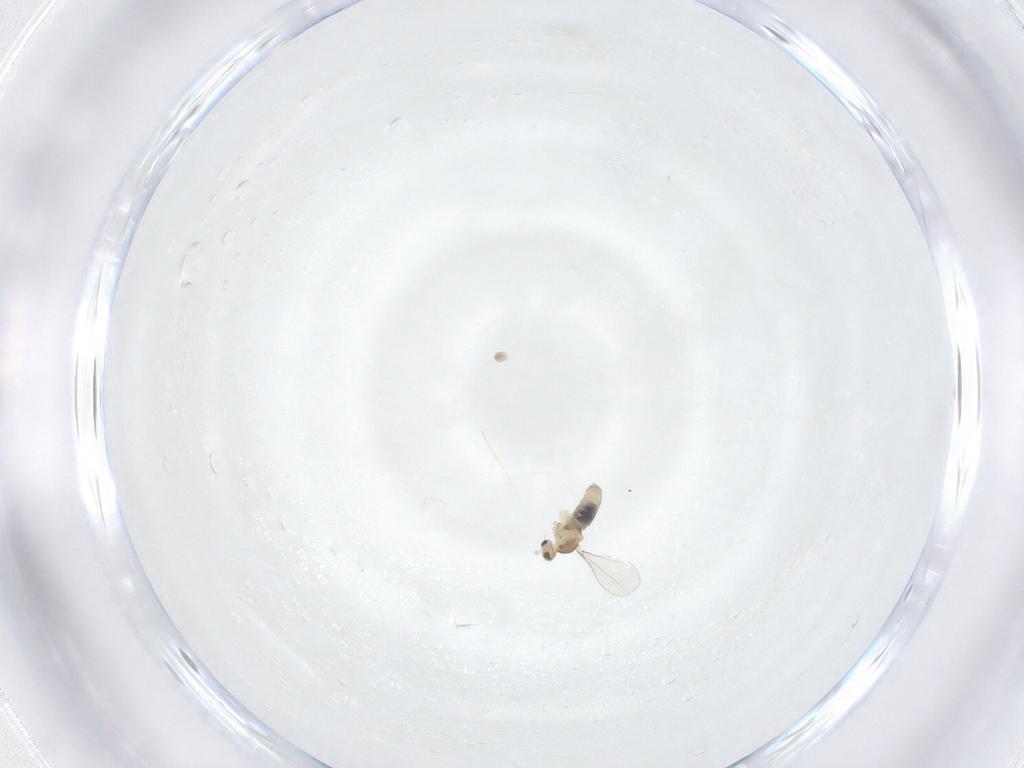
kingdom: Animalia
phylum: Arthropoda
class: Insecta
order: Diptera
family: Cecidomyiidae
